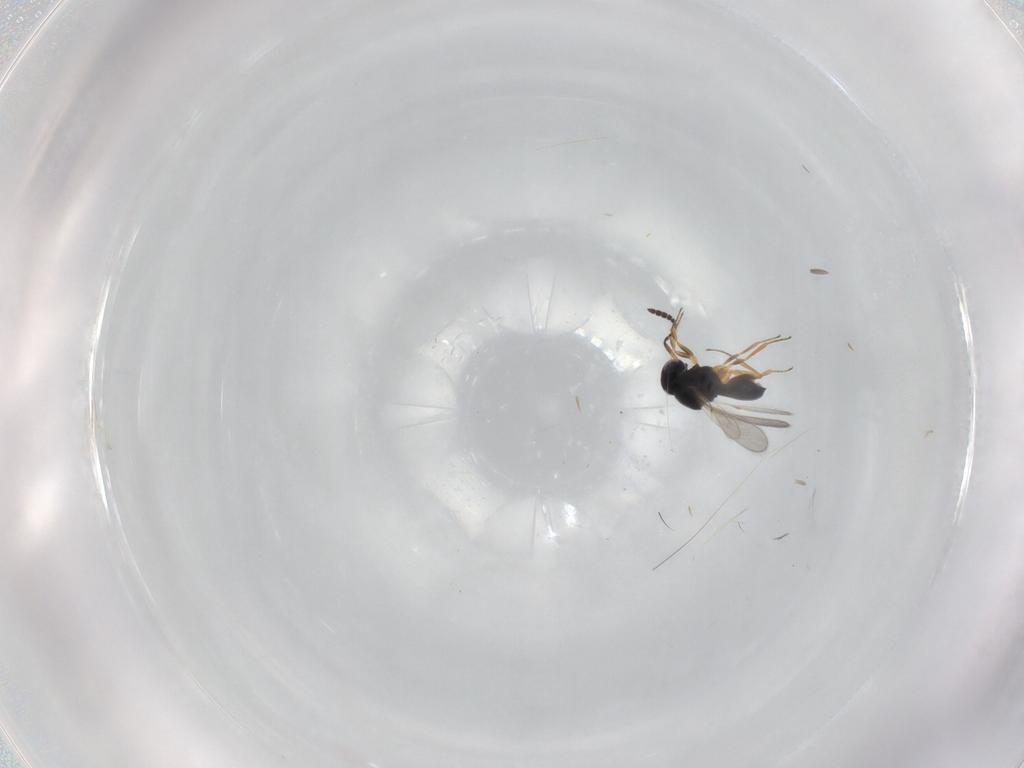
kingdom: Animalia
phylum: Arthropoda
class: Insecta
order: Hymenoptera
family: Scelionidae
